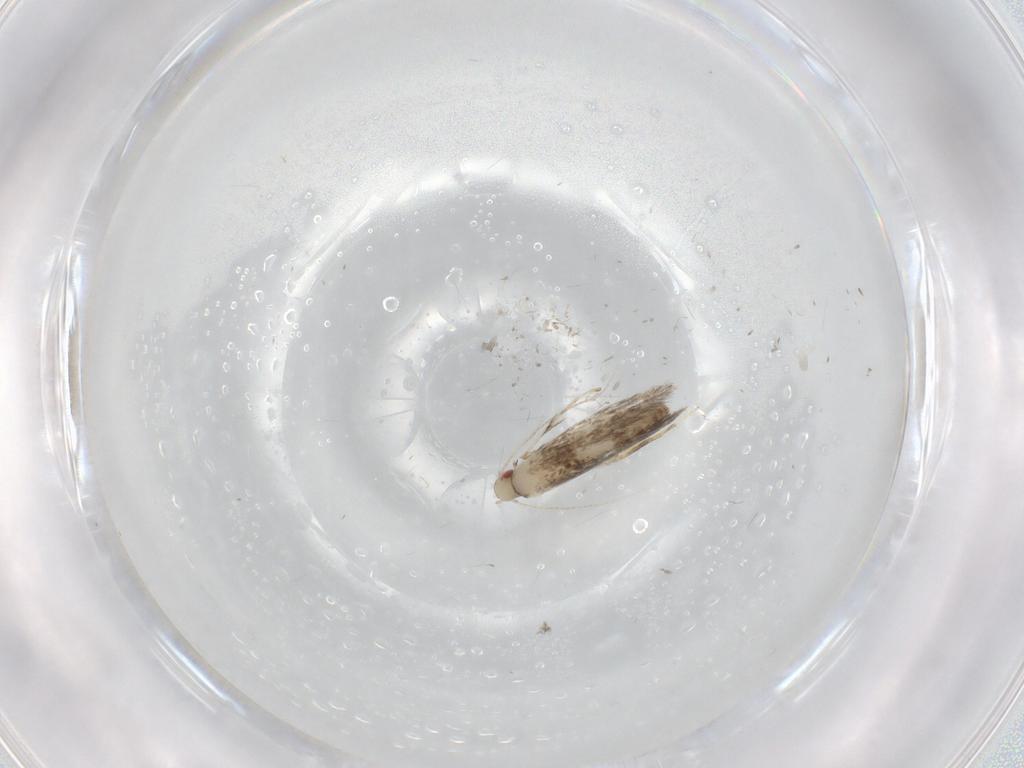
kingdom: Animalia
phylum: Arthropoda
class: Insecta
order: Lepidoptera
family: Gracillariidae
